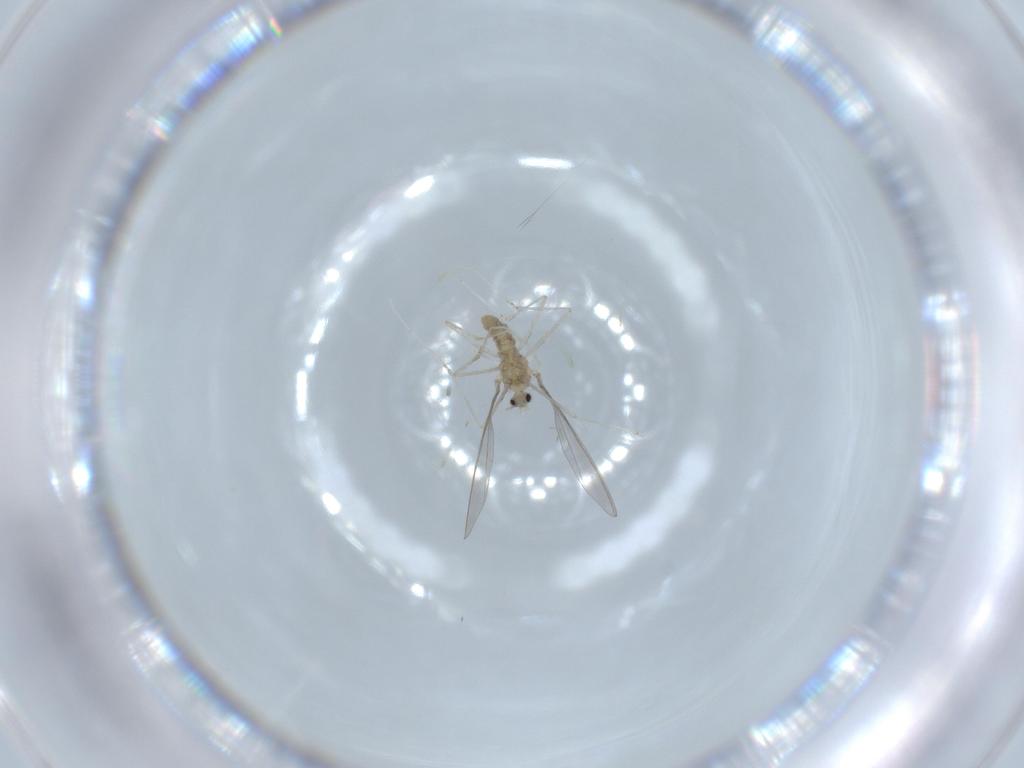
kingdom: Animalia
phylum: Arthropoda
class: Insecta
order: Diptera
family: Cecidomyiidae
